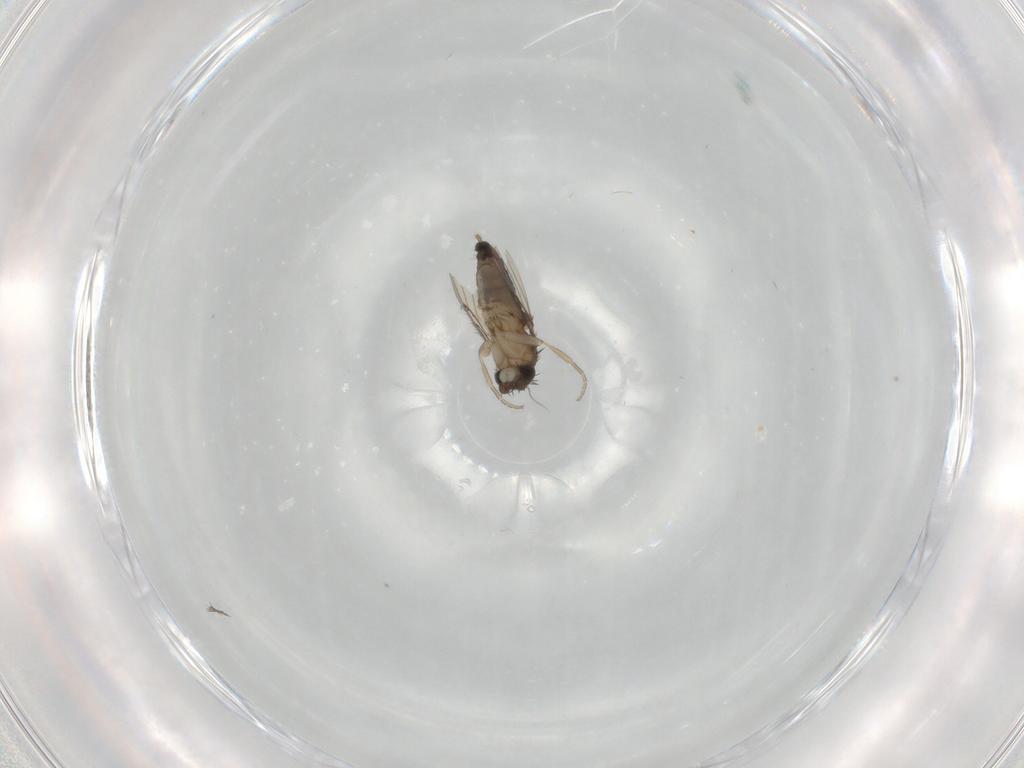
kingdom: Animalia
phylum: Arthropoda
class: Insecta
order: Diptera
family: Phoridae
